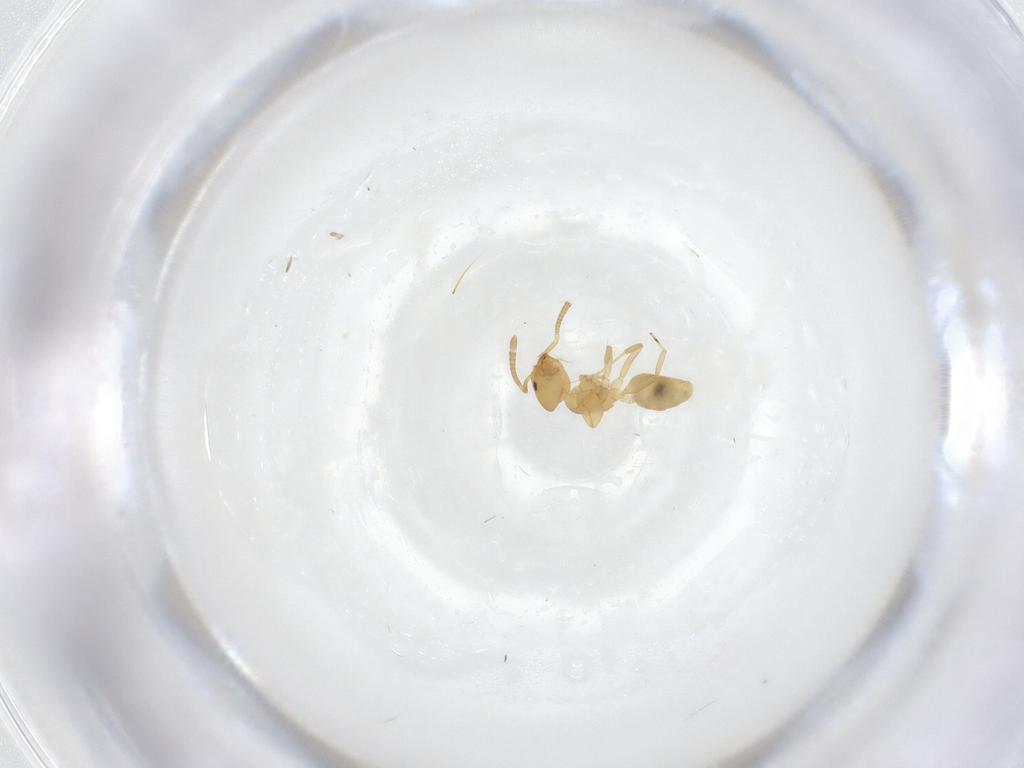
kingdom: Animalia
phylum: Arthropoda
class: Insecta
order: Hymenoptera
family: Formicidae
